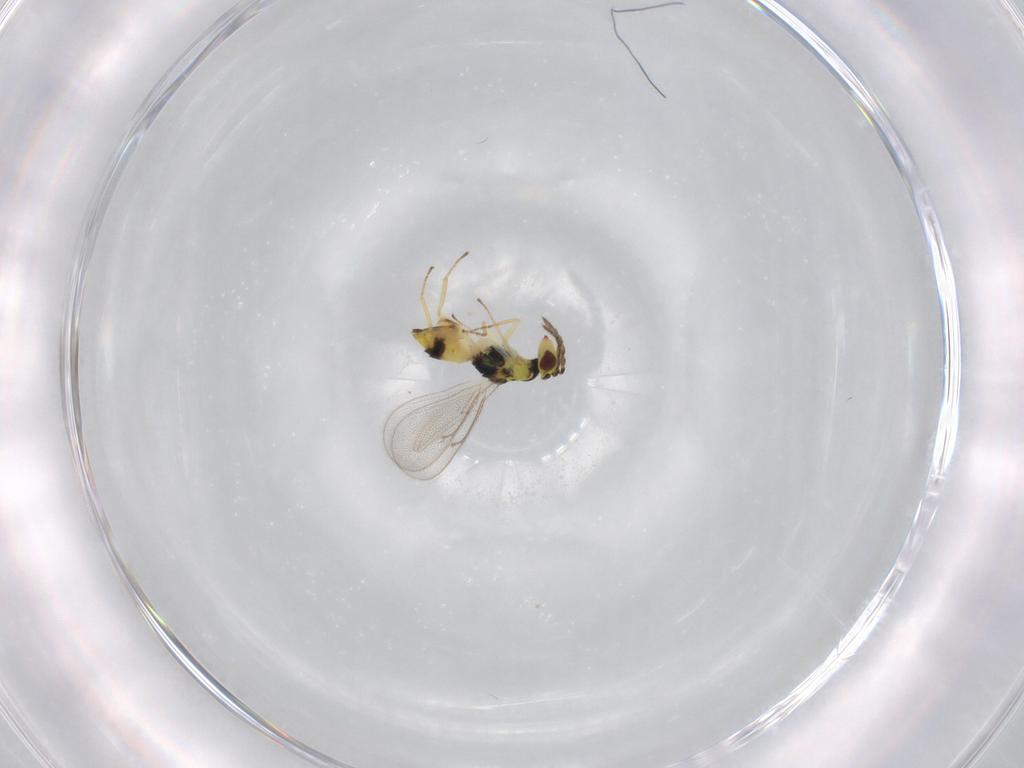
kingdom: Animalia
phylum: Arthropoda
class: Insecta
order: Hymenoptera
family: Eulophidae
